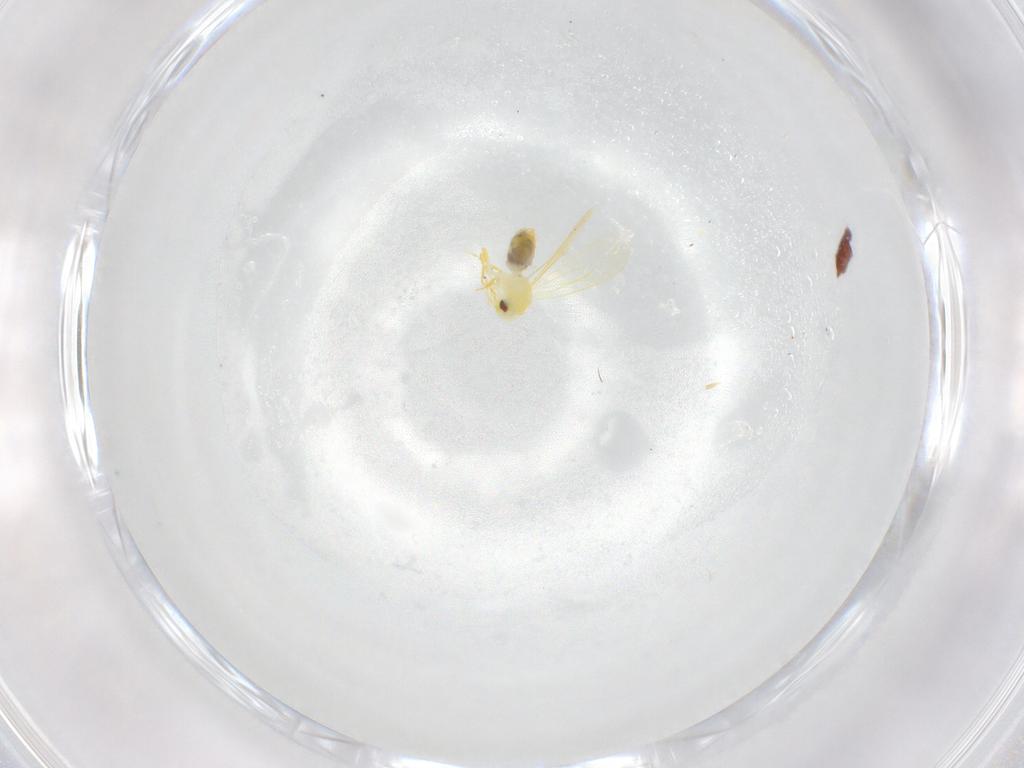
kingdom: Animalia
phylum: Arthropoda
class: Insecta
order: Hemiptera
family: Aleyrodidae
